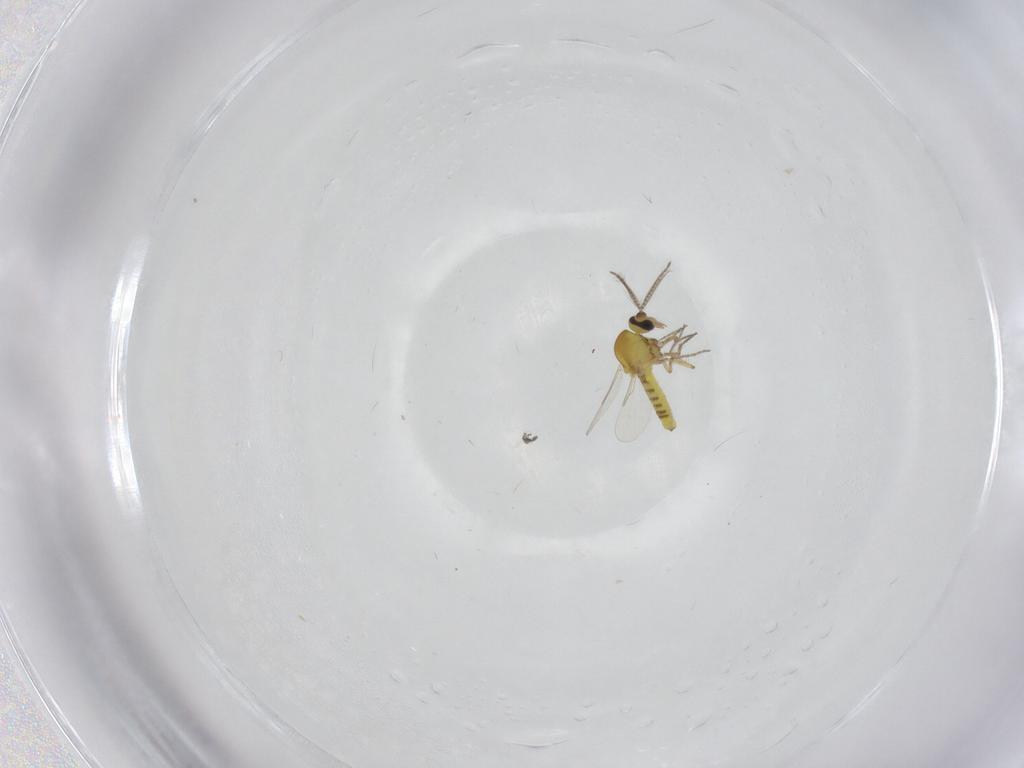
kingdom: Animalia
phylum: Arthropoda
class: Insecta
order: Diptera
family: Ceratopogonidae
